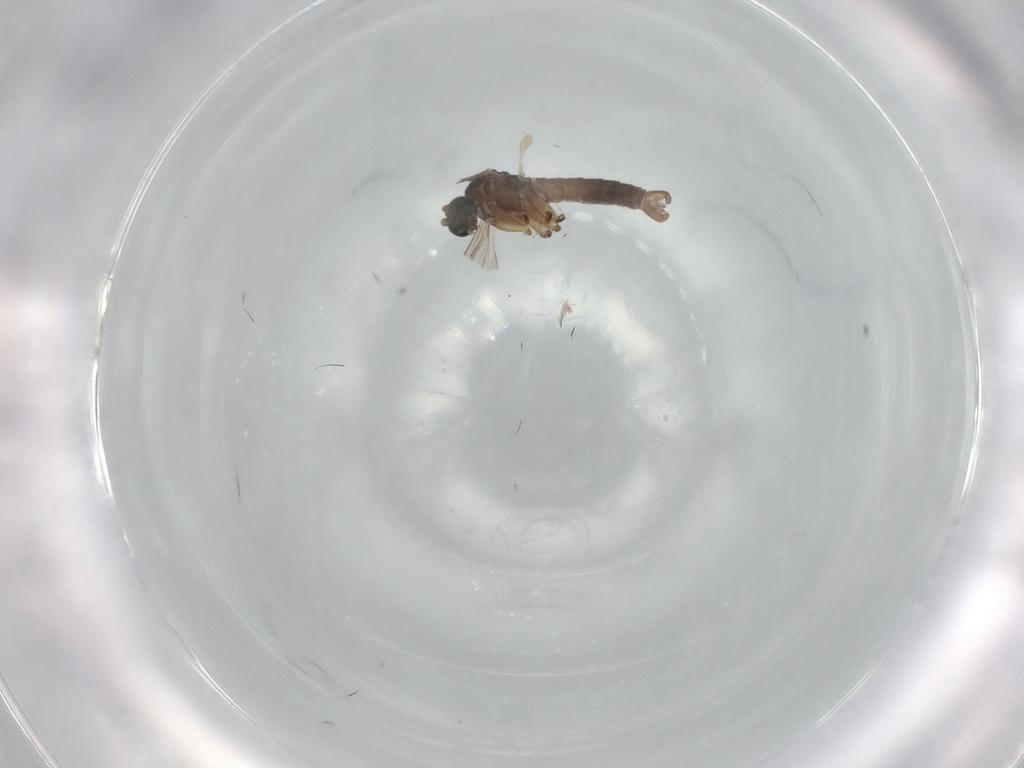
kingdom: Animalia
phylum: Arthropoda
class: Insecta
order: Diptera
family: Sciaridae
